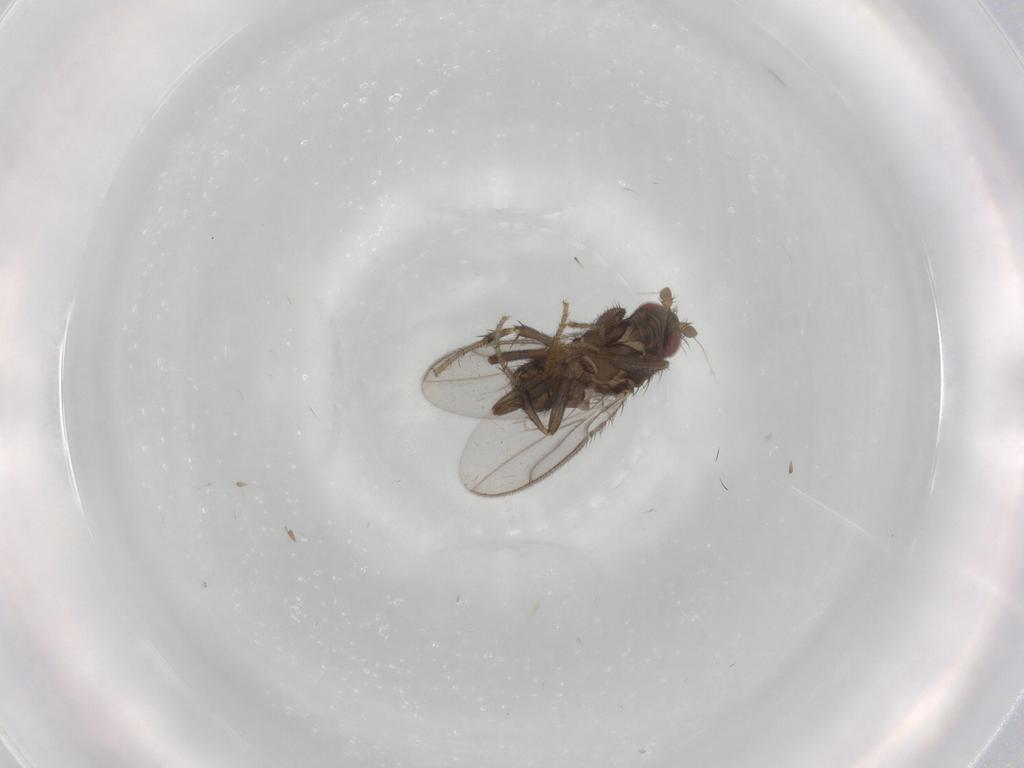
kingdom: Animalia
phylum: Arthropoda
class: Insecta
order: Diptera
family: Sphaeroceridae
